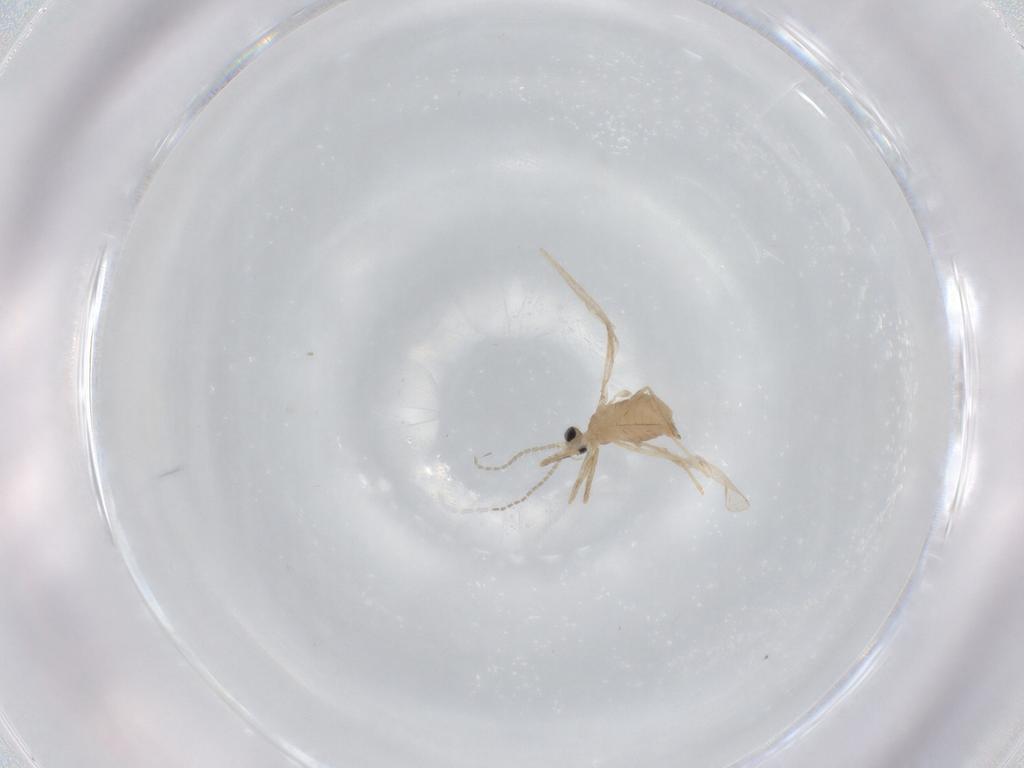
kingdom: Animalia
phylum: Arthropoda
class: Insecta
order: Diptera
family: Cecidomyiidae
